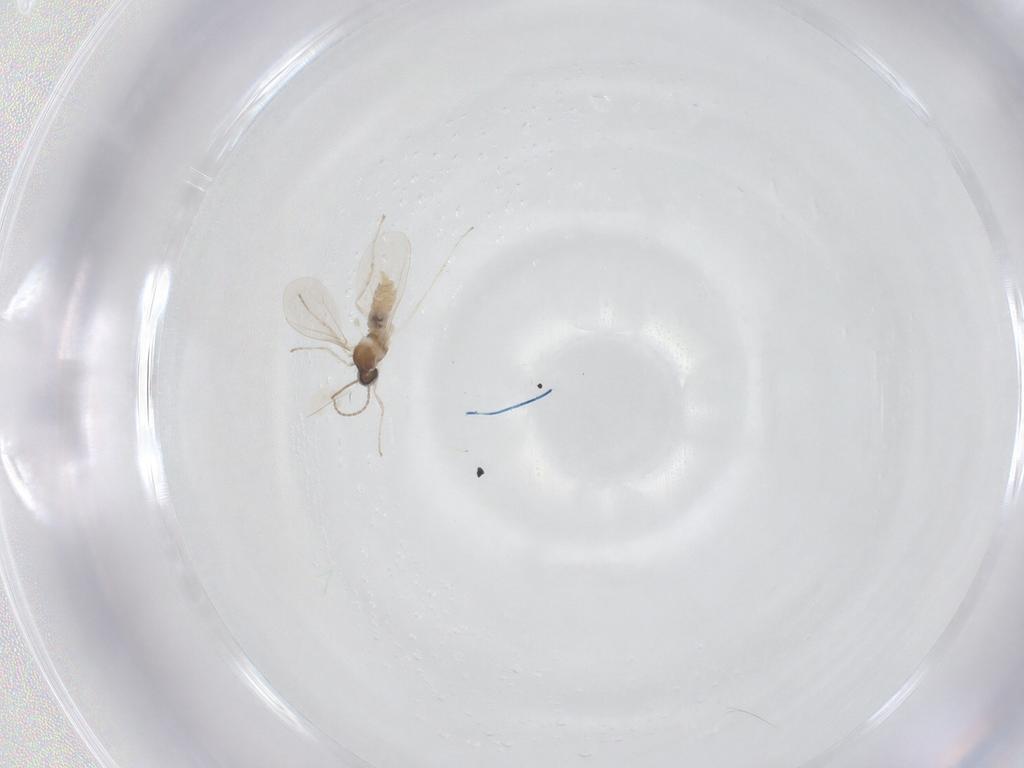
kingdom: Animalia
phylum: Arthropoda
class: Insecta
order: Diptera
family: Cecidomyiidae
